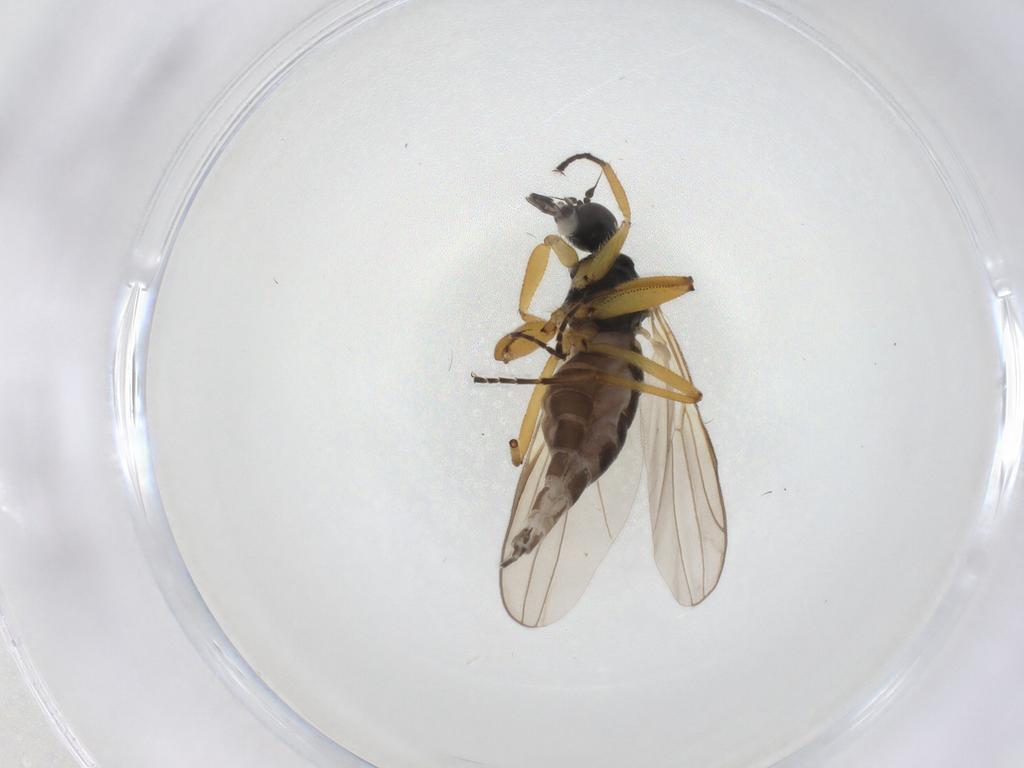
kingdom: Animalia
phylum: Arthropoda
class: Insecta
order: Diptera
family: Hybotidae
